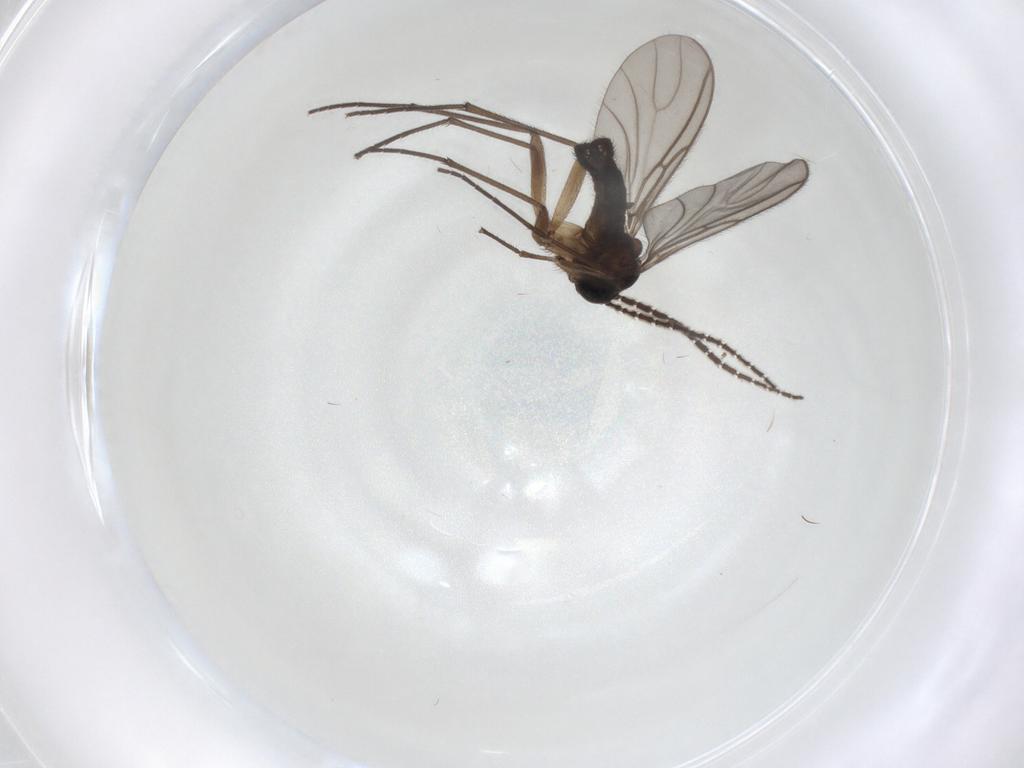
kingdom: Animalia
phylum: Arthropoda
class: Insecta
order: Diptera
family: Sciaridae
